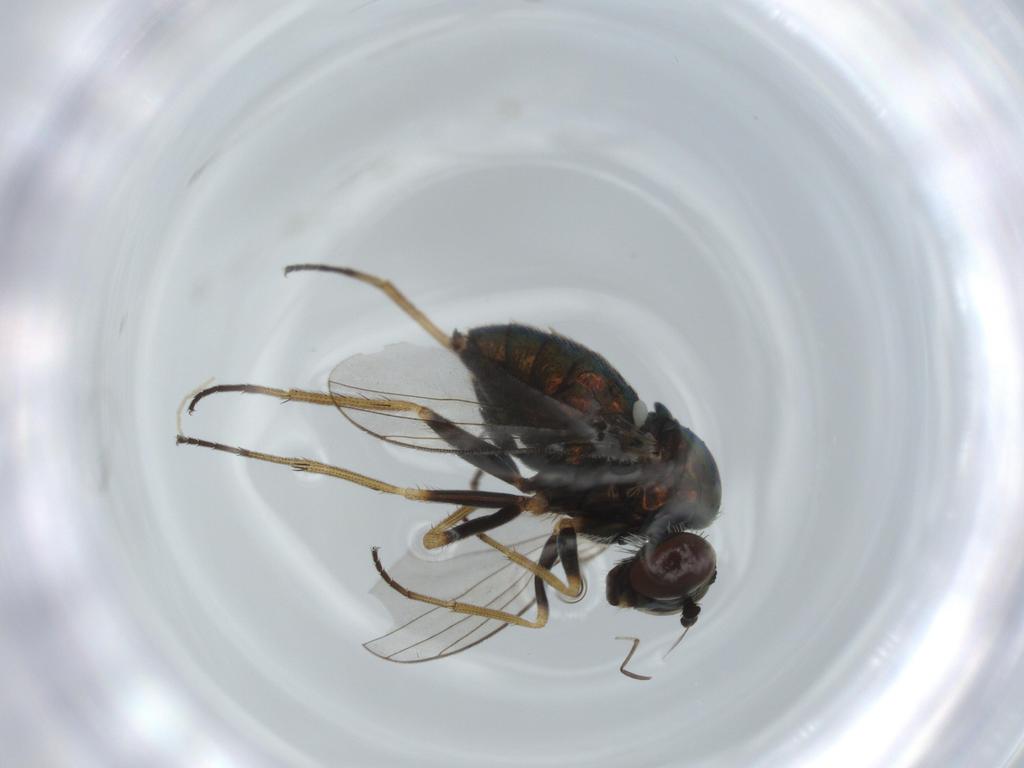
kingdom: Animalia
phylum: Arthropoda
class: Insecta
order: Diptera
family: Ceratopogonidae
